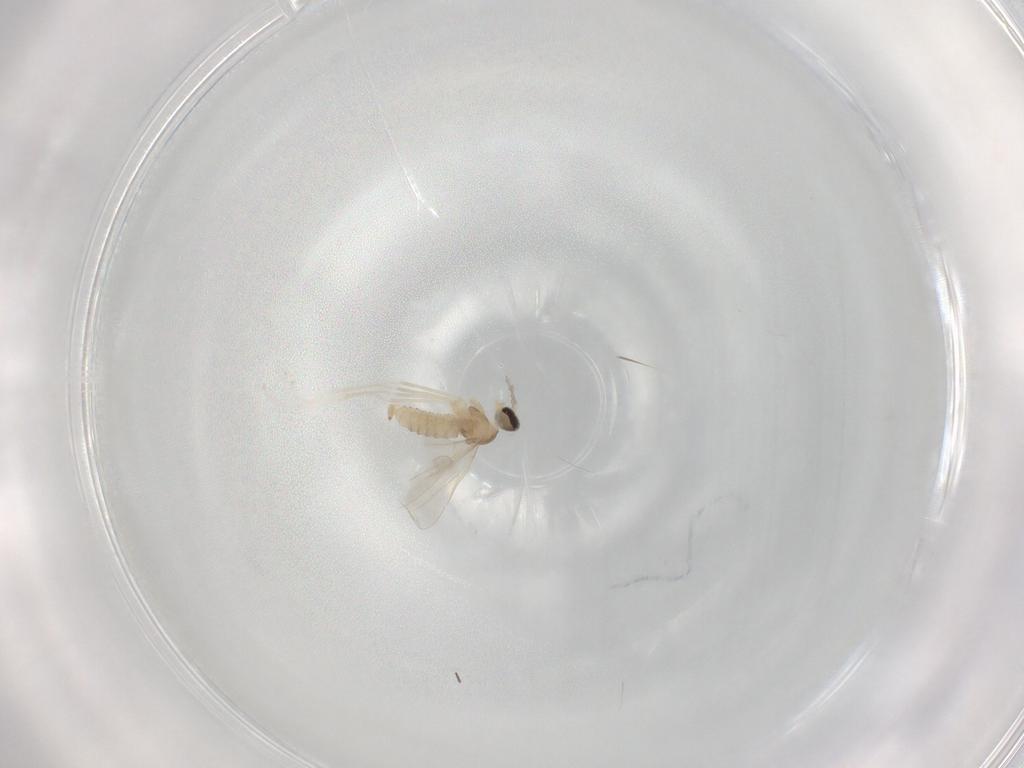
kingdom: Animalia
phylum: Arthropoda
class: Insecta
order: Diptera
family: Cecidomyiidae
